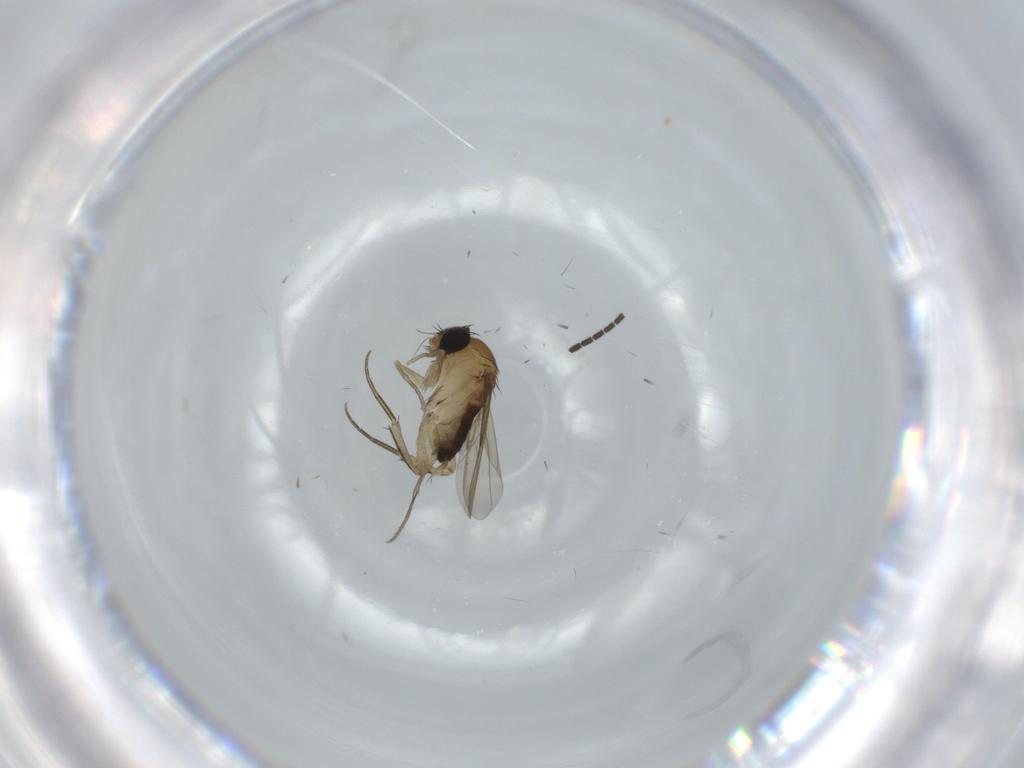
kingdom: Animalia
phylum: Arthropoda
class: Insecta
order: Diptera
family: Phoridae
